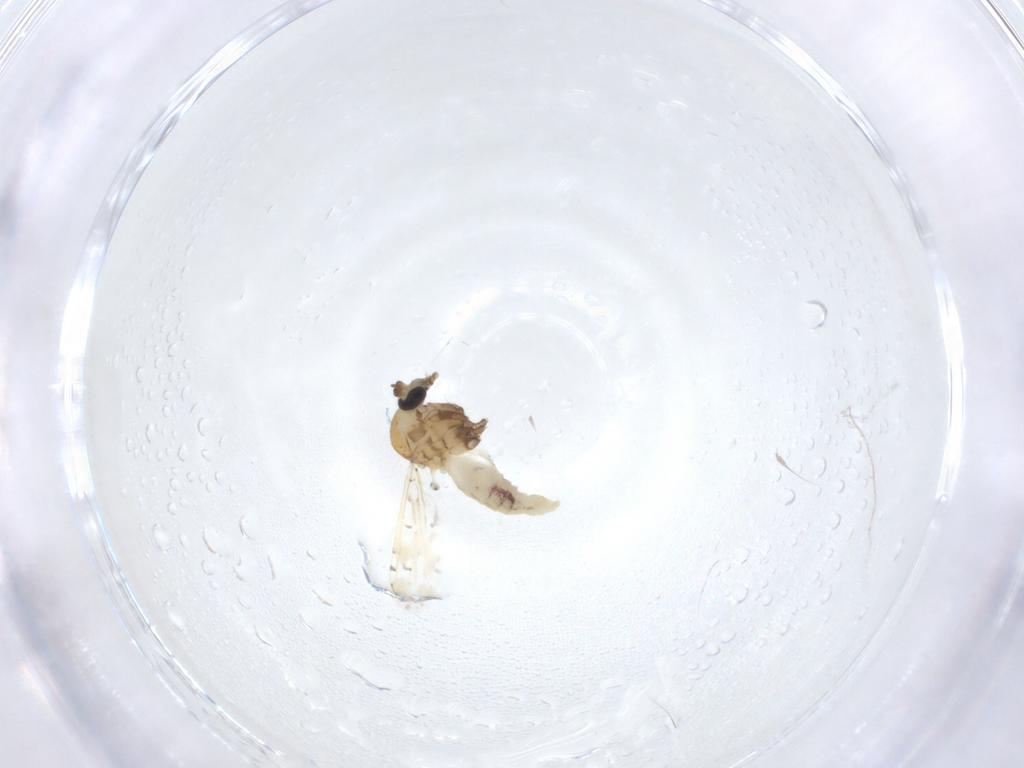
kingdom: Animalia
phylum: Arthropoda
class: Insecta
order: Diptera
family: Ceratopogonidae
